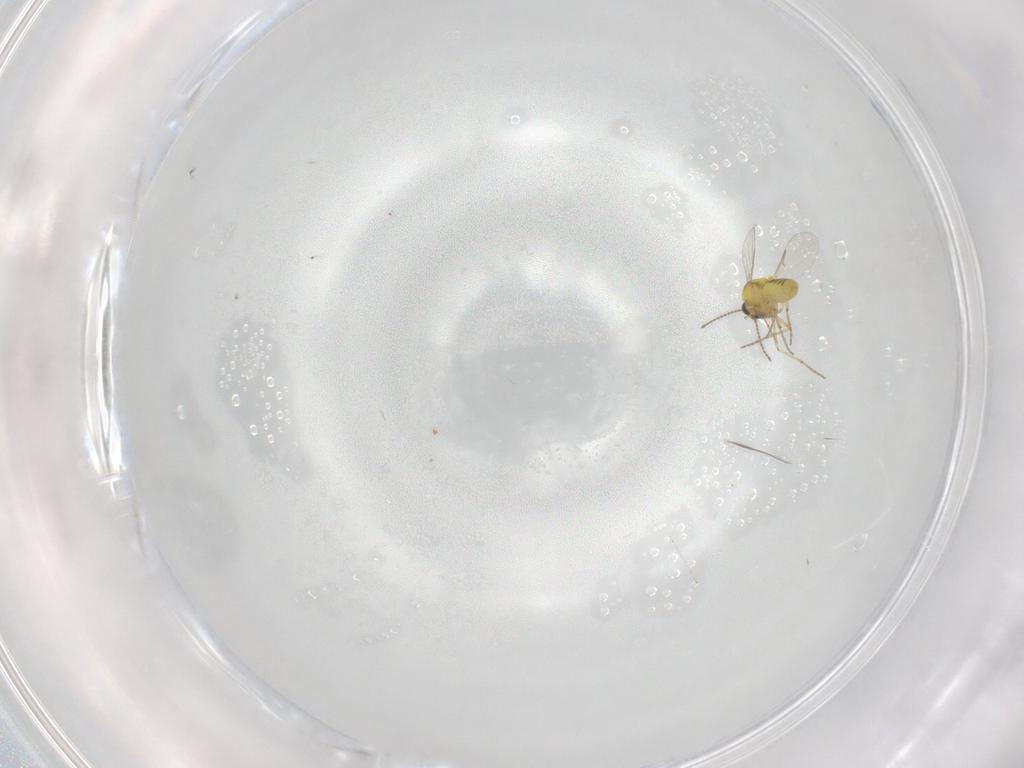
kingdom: Animalia
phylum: Arthropoda
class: Insecta
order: Diptera
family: Ceratopogonidae
